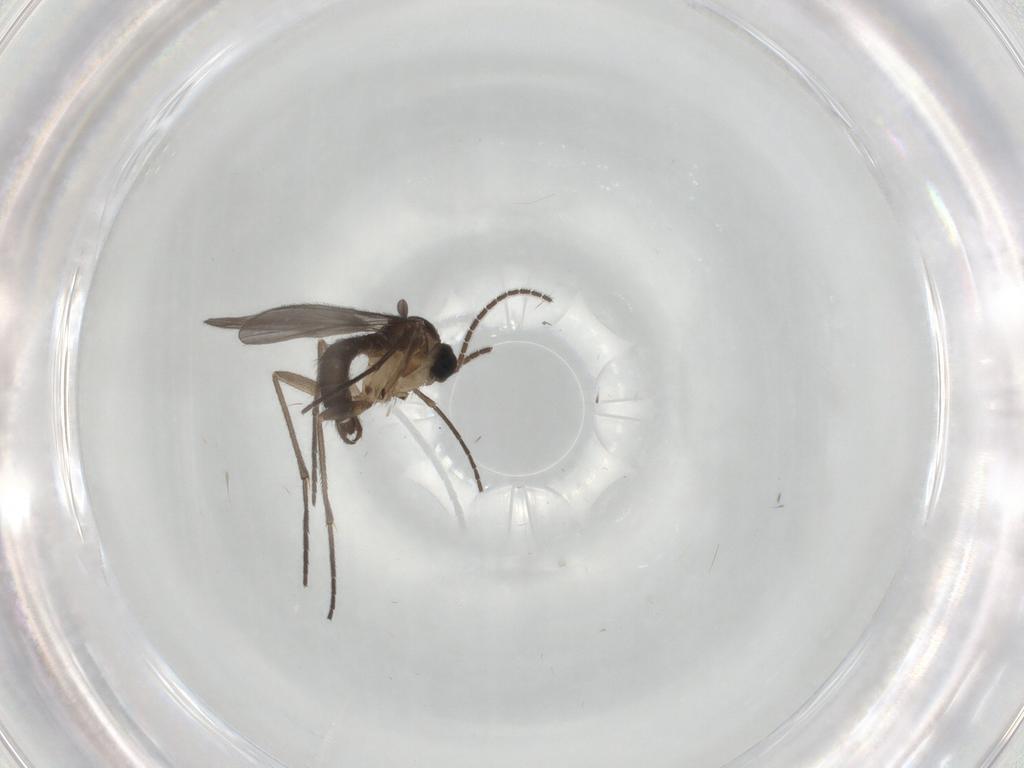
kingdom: Animalia
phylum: Arthropoda
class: Insecta
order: Diptera
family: Sciaridae
